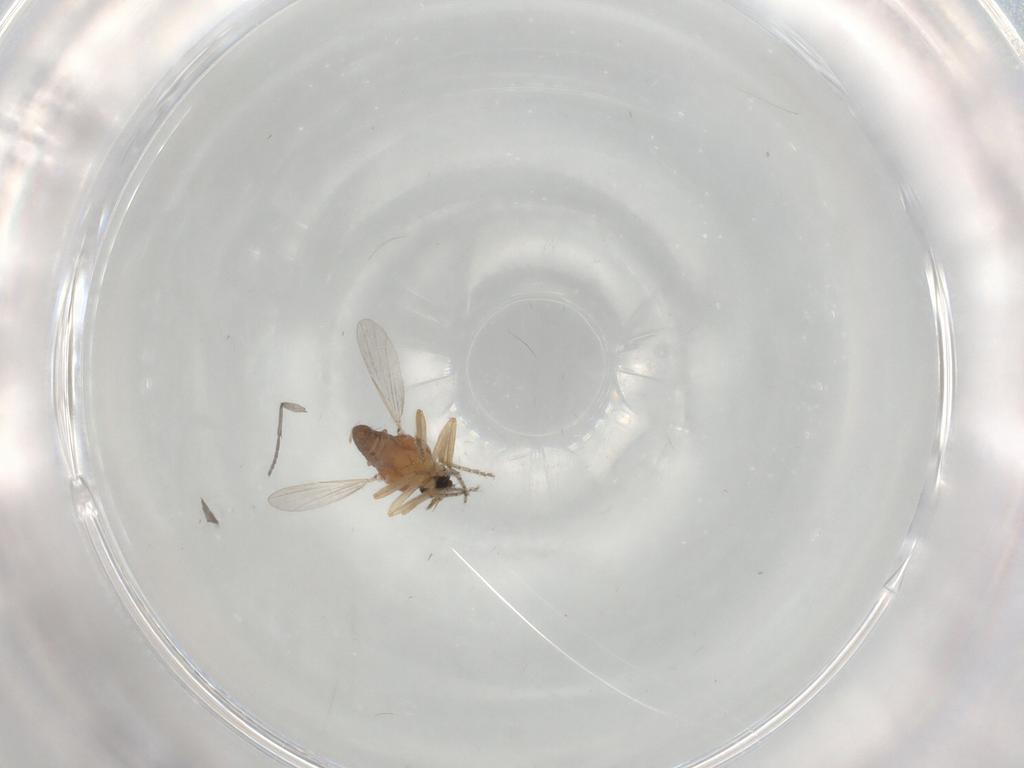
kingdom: Animalia
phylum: Arthropoda
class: Insecta
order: Diptera
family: Ceratopogonidae
